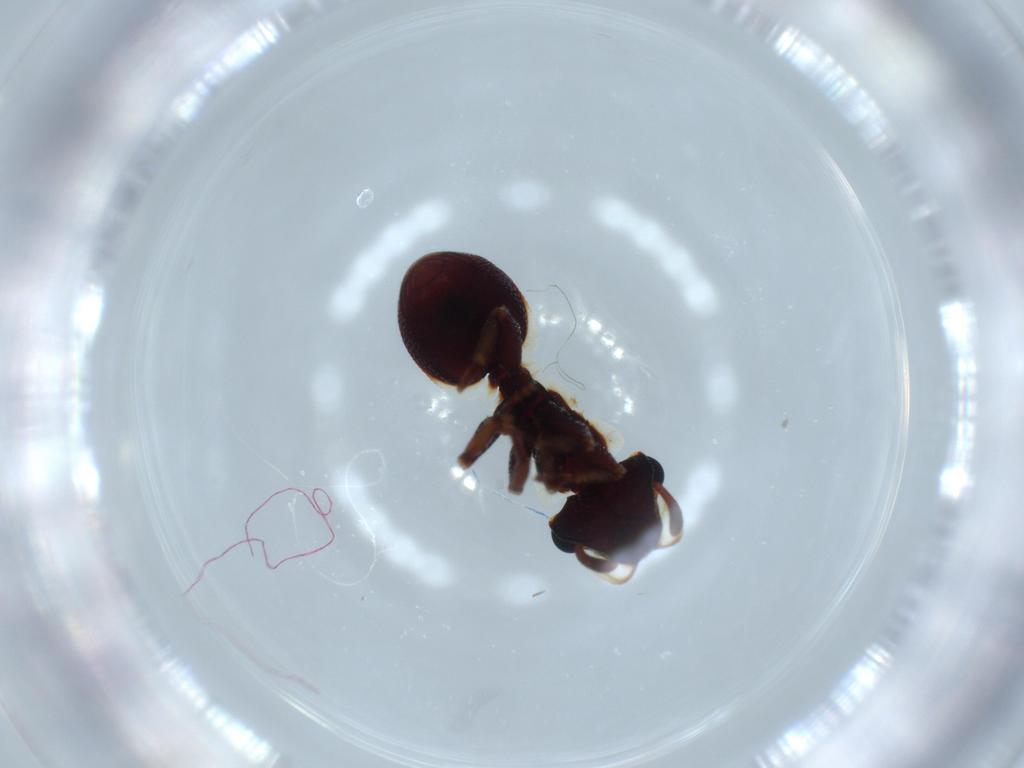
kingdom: Animalia
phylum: Arthropoda
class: Insecta
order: Hymenoptera
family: Formicidae
